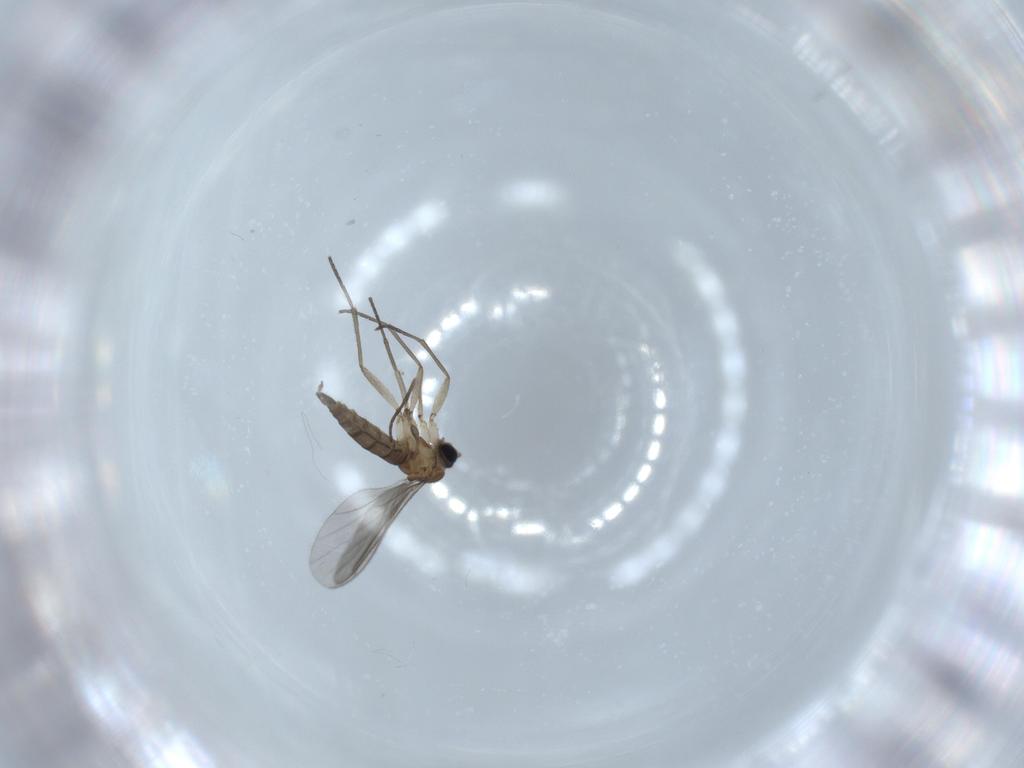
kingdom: Animalia
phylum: Arthropoda
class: Insecta
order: Diptera
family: Sciaridae
